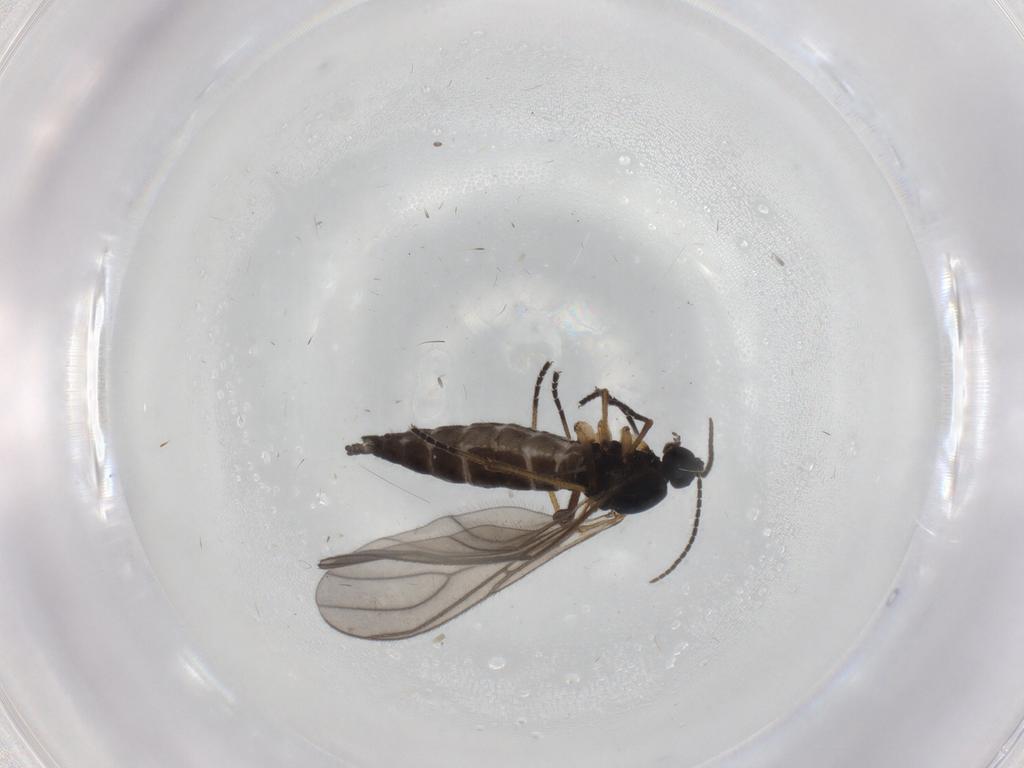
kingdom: Animalia
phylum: Arthropoda
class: Insecta
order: Diptera
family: Sciaridae
